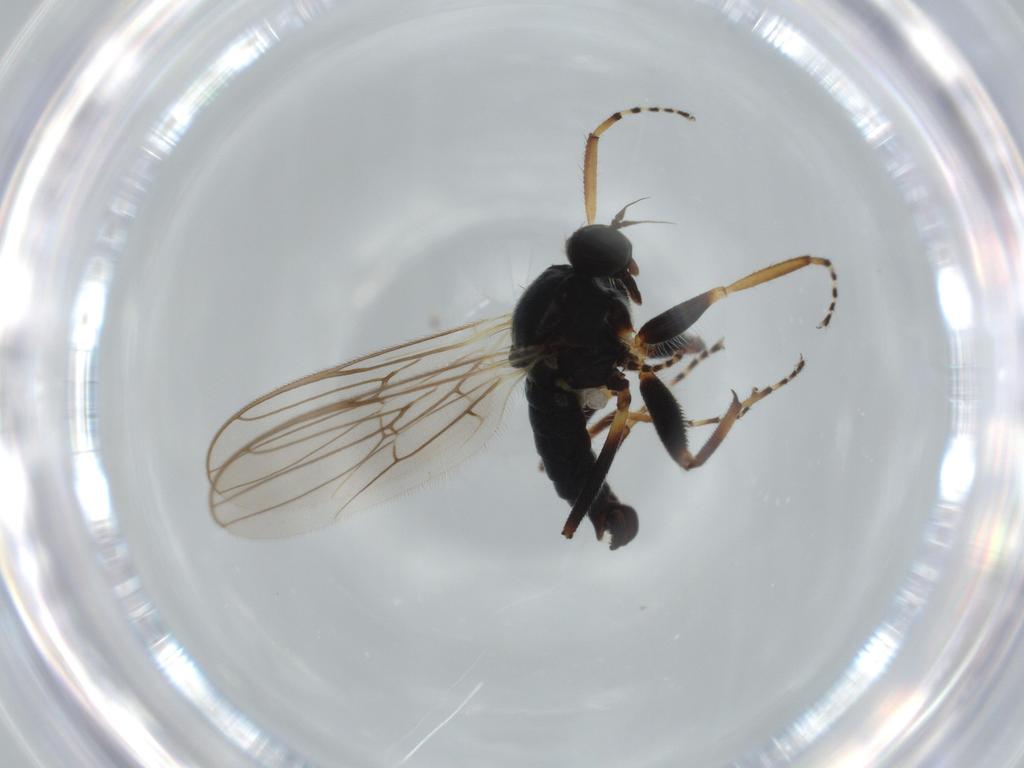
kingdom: Animalia
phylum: Arthropoda
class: Insecta
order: Diptera
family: Hybotidae
